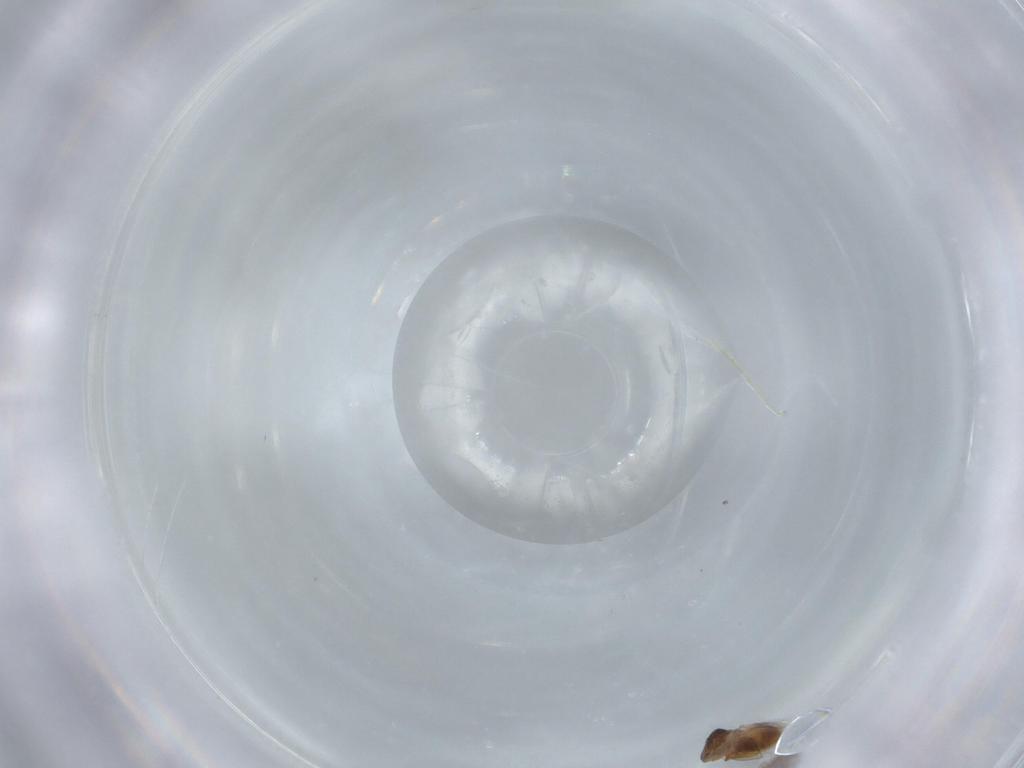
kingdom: Animalia
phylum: Arthropoda
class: Insecta
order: Hymenoptera
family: Scelionidae
